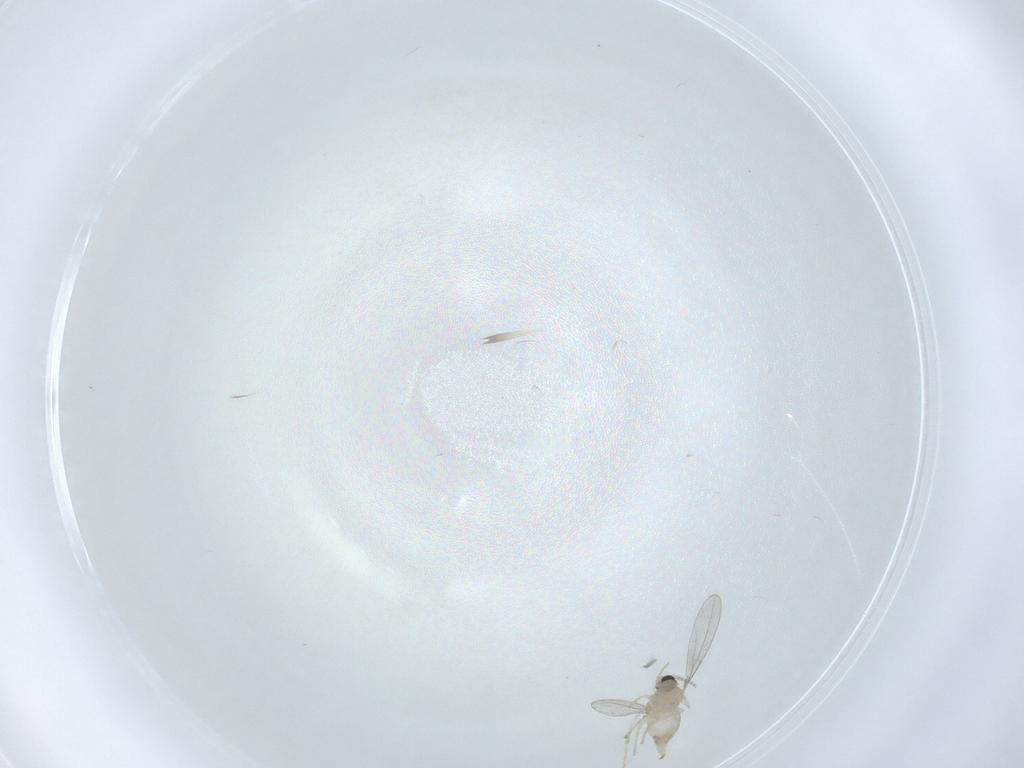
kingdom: Animalia
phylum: Arthropoda
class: Insecta
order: Diptera
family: Cecidomyiidae
